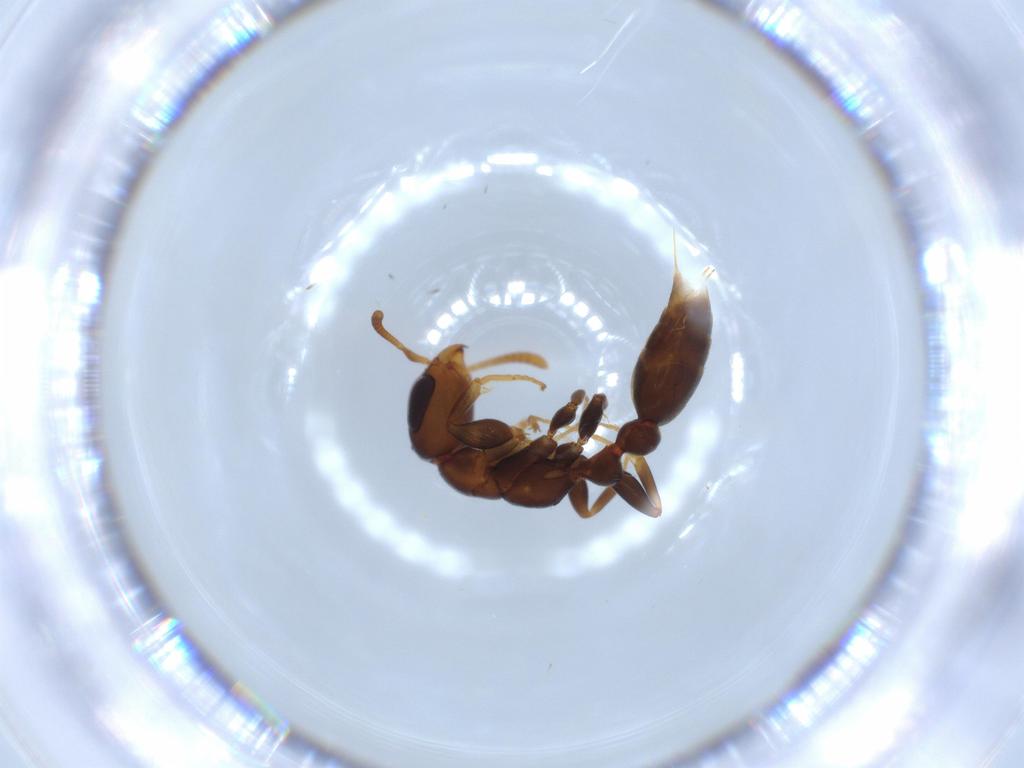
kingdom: Animalia
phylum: Arthropoda
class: Insecta
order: Hymenoptera
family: Formicidae
